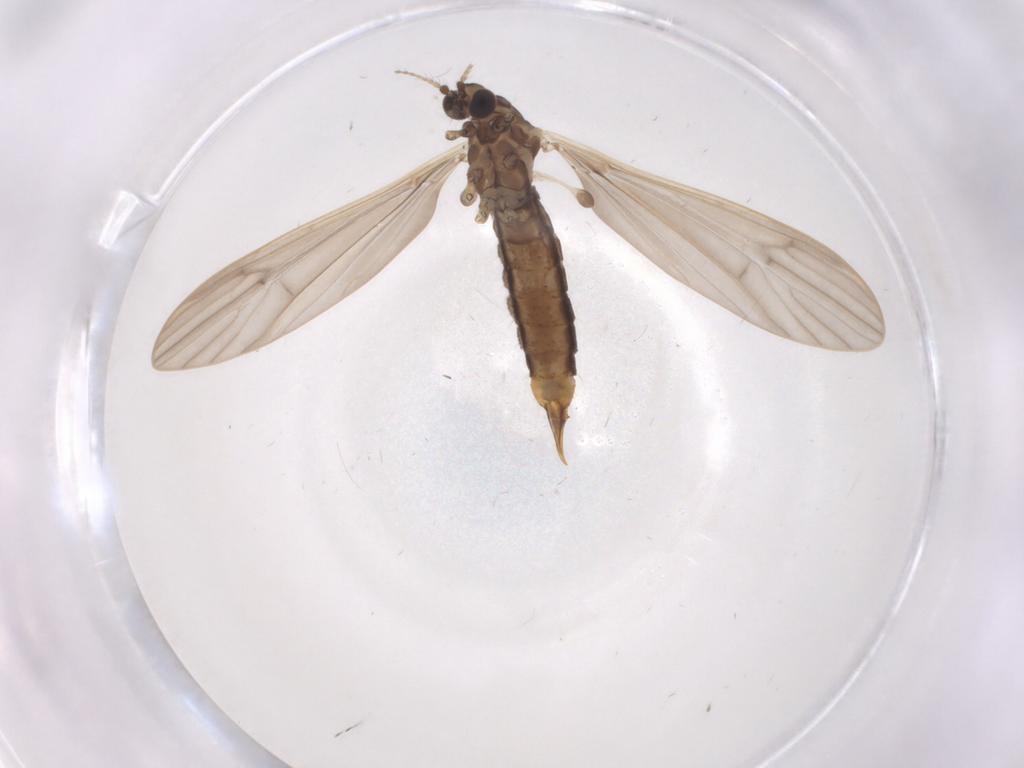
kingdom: Animalia
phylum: Arthropoda
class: Insecta
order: Diptera
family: Limoniidae
